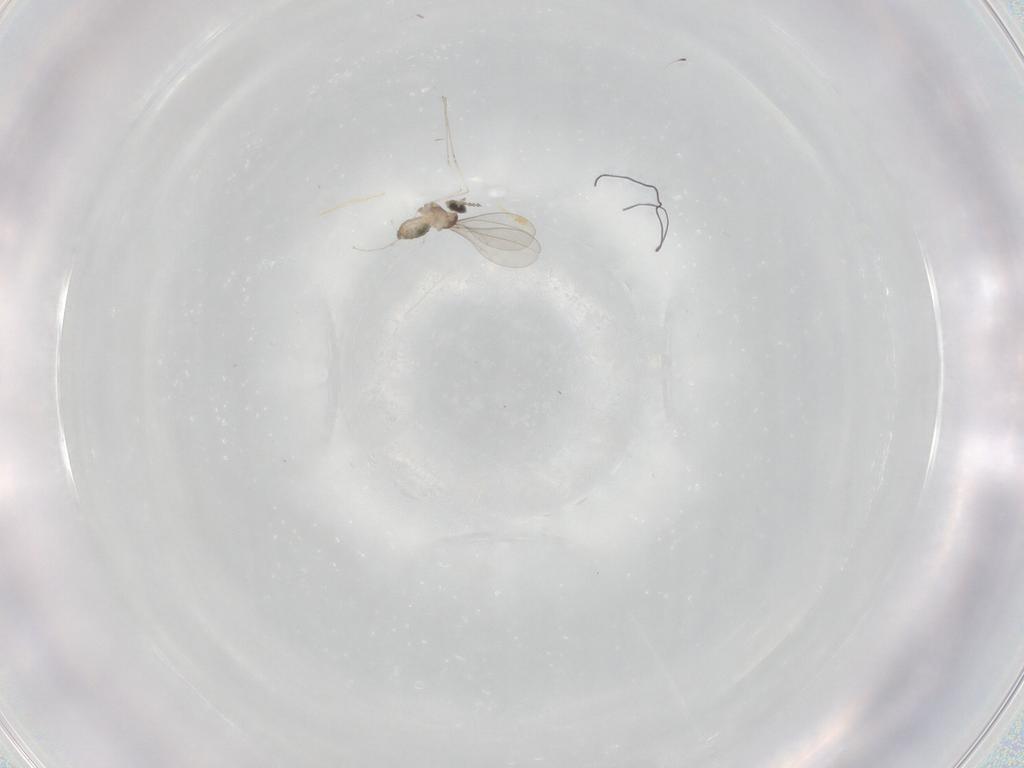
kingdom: Animalia
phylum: Arthropoda
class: Insecta
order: Diptera
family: Cecidomyiidae
